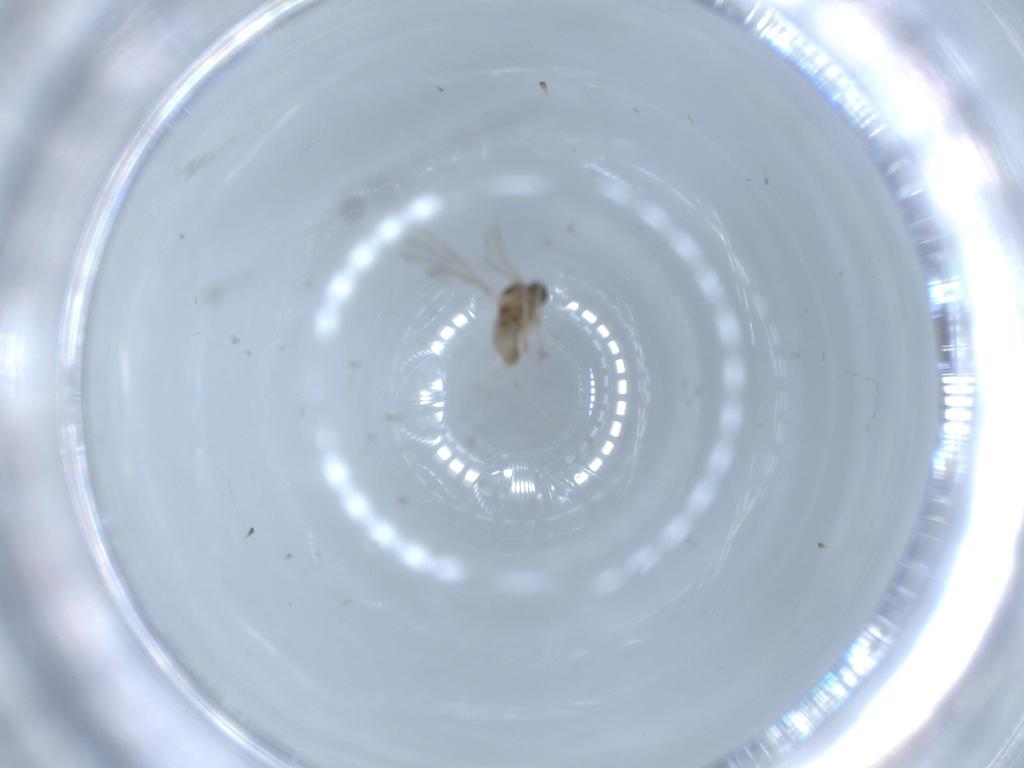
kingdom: Animalia
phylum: Arthropoda
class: Insecta
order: Diptera
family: Cecidomyiidae
